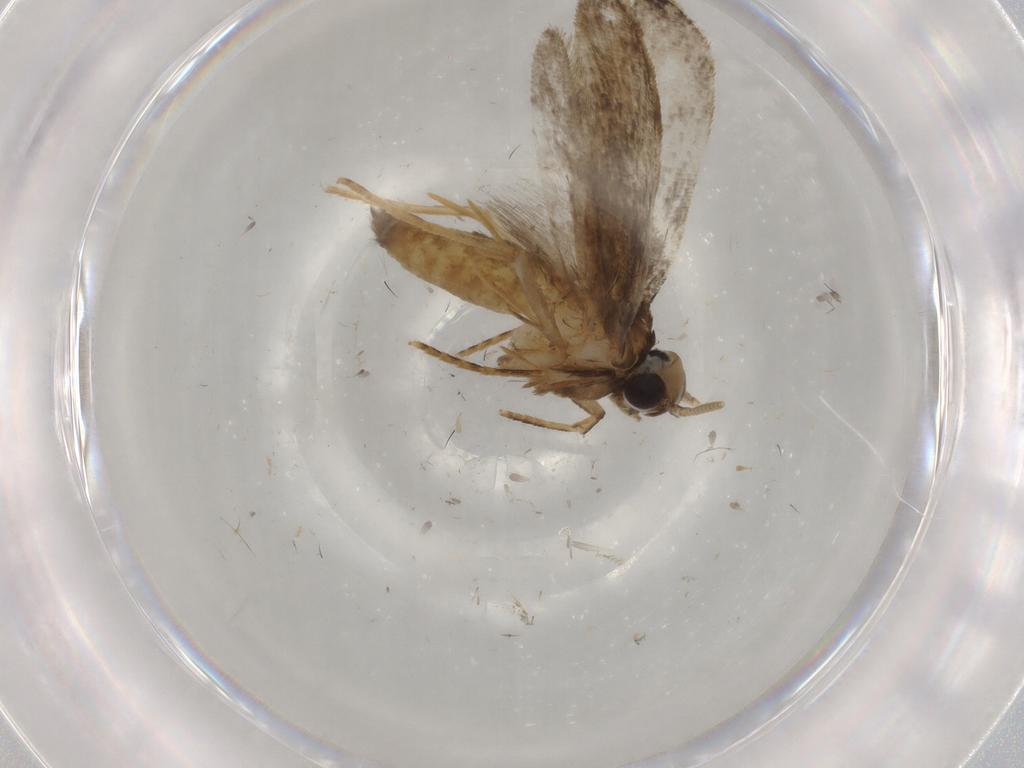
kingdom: Animalia
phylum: Arthropoda
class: Insecta
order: Lepidoptera
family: Tineidae
